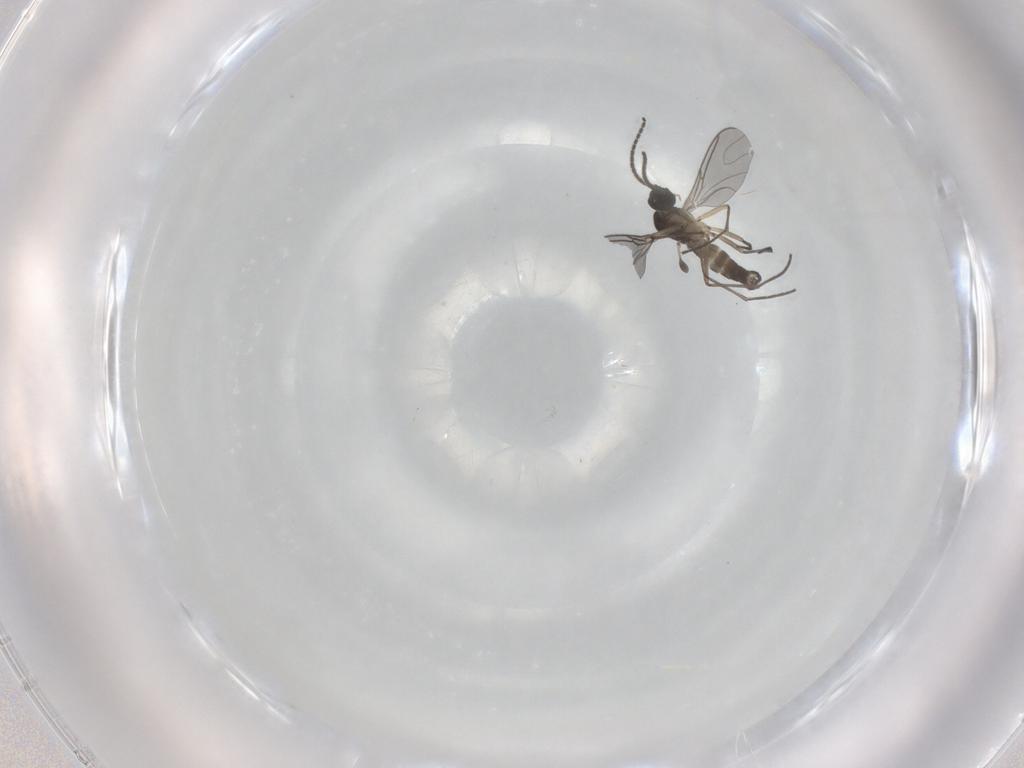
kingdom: Animalia
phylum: Arthropoda
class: Insecta
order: Diptera
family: Sciaridae
